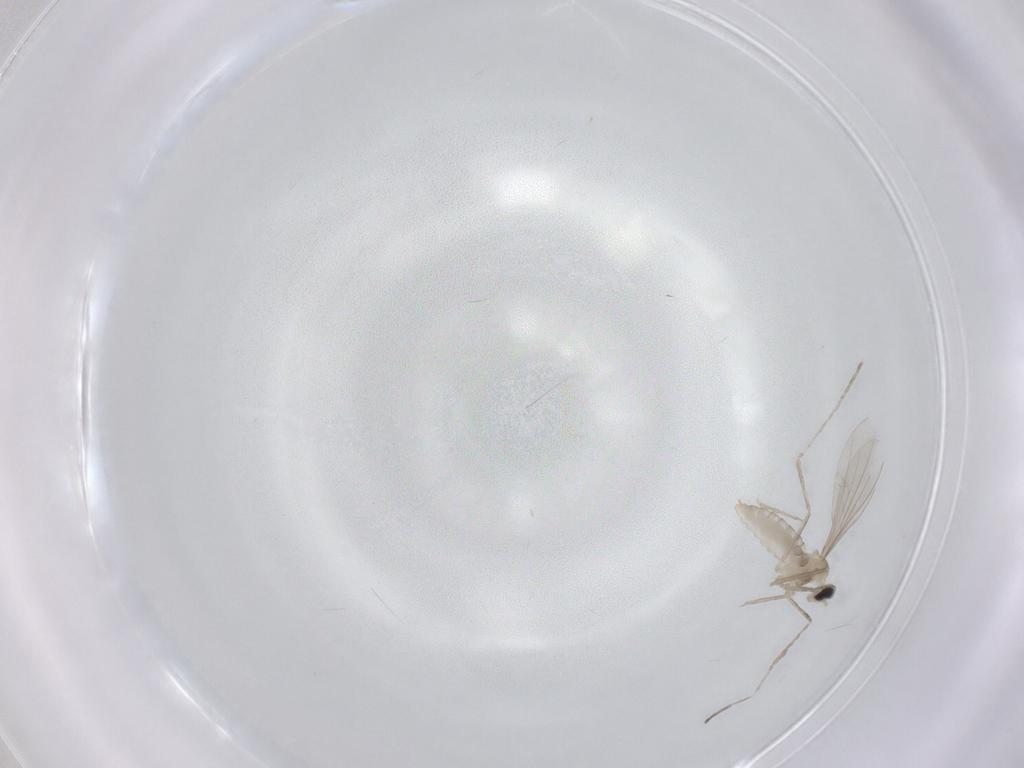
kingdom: Animalia
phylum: Arthropoda
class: Insecta
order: Diptera
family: Cecidomyiidae
